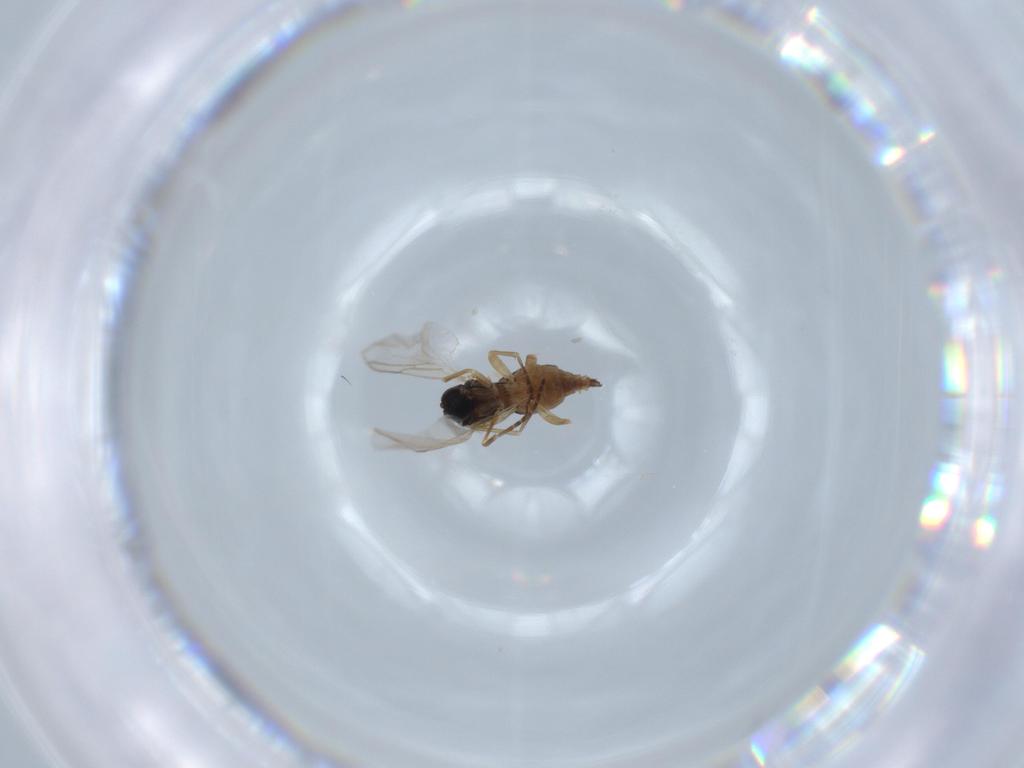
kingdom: Animalia
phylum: Arthropoda
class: Insecta
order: Diptera
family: Sciaridae
